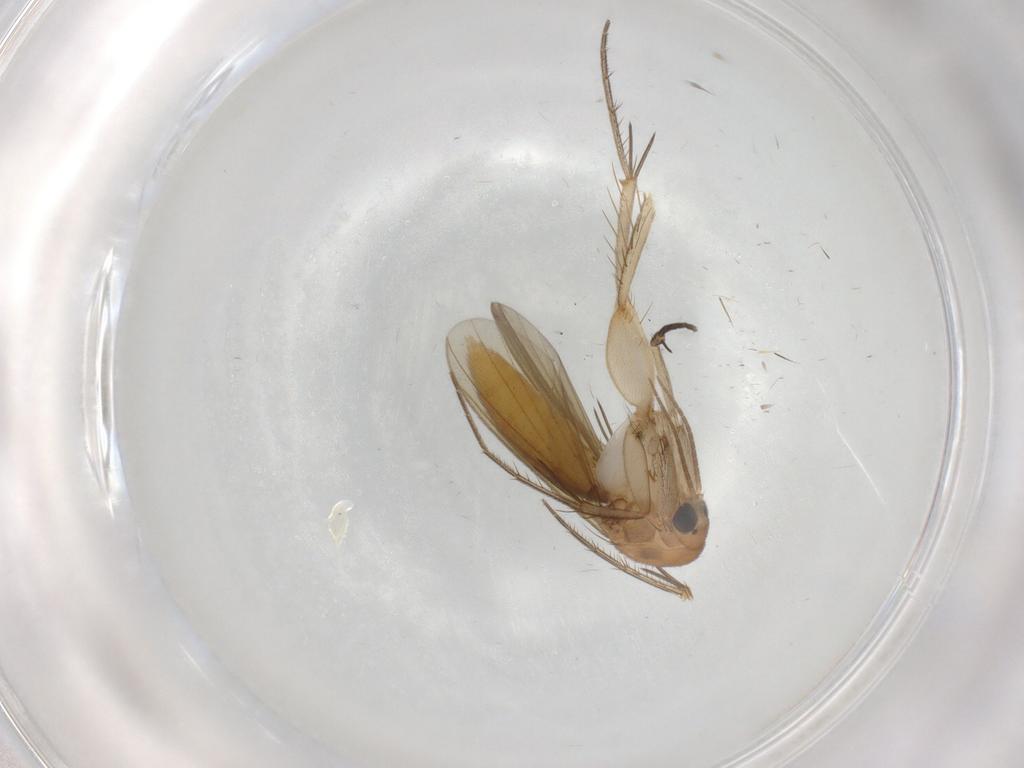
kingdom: Animalia
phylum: Arthropoda
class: Insecta
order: Diptera
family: Mycetophilidae
